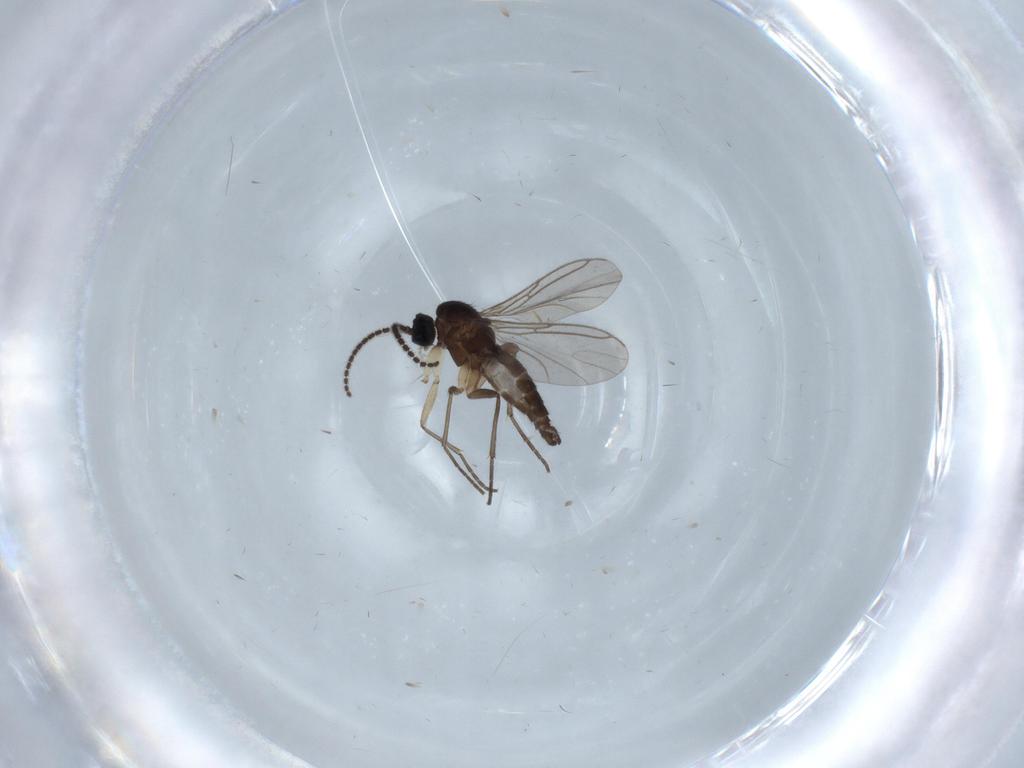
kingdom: Animalia
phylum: Arthropoda
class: Insecta
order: Diptera
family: Sciaridae
